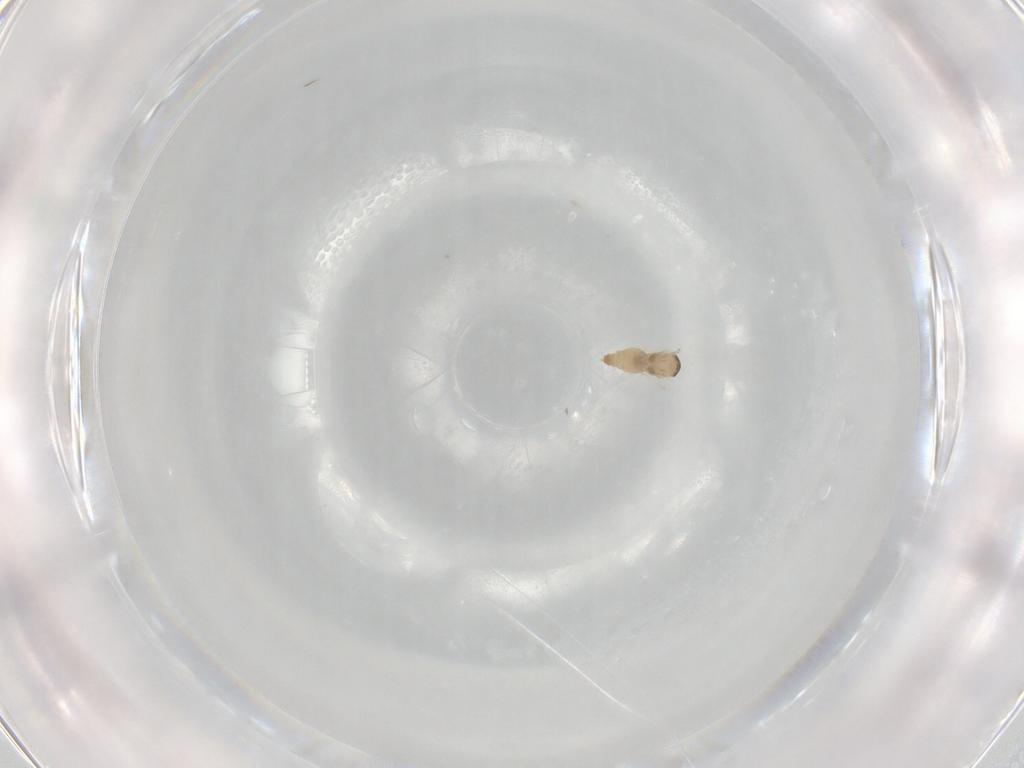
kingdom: Animalia
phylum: Arthropoda
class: Insecta
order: Diptera
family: Cecidomyiidae
